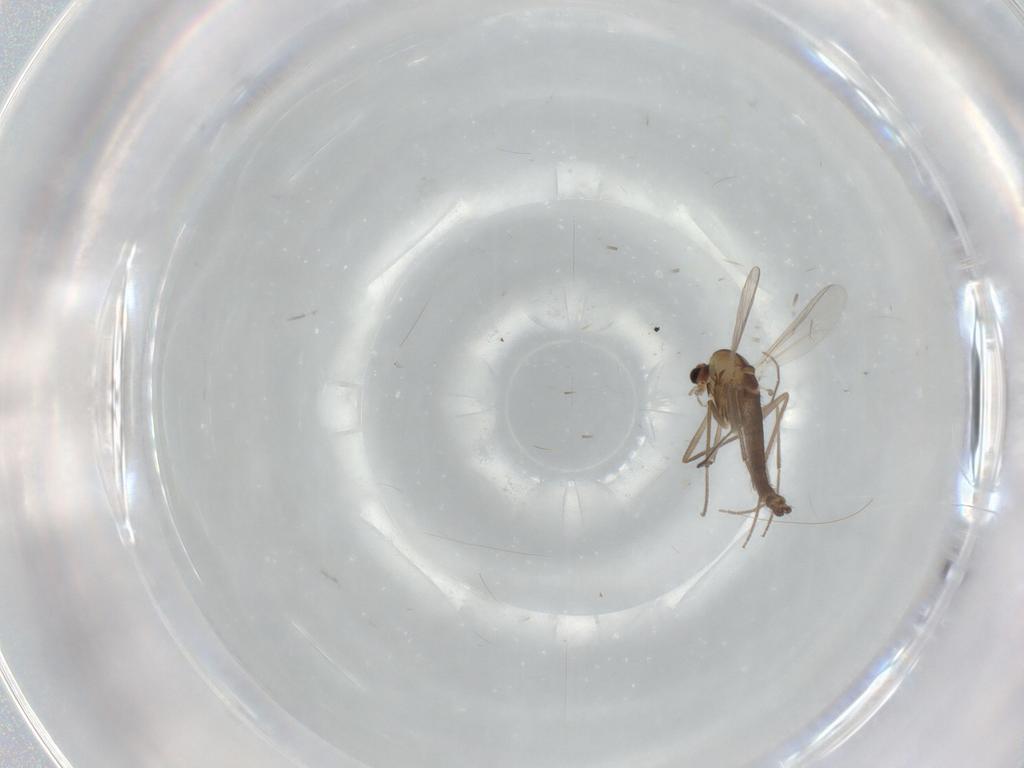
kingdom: Animalia
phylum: Arthropoda
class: Insecta
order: Diptera
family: Chironomidae
